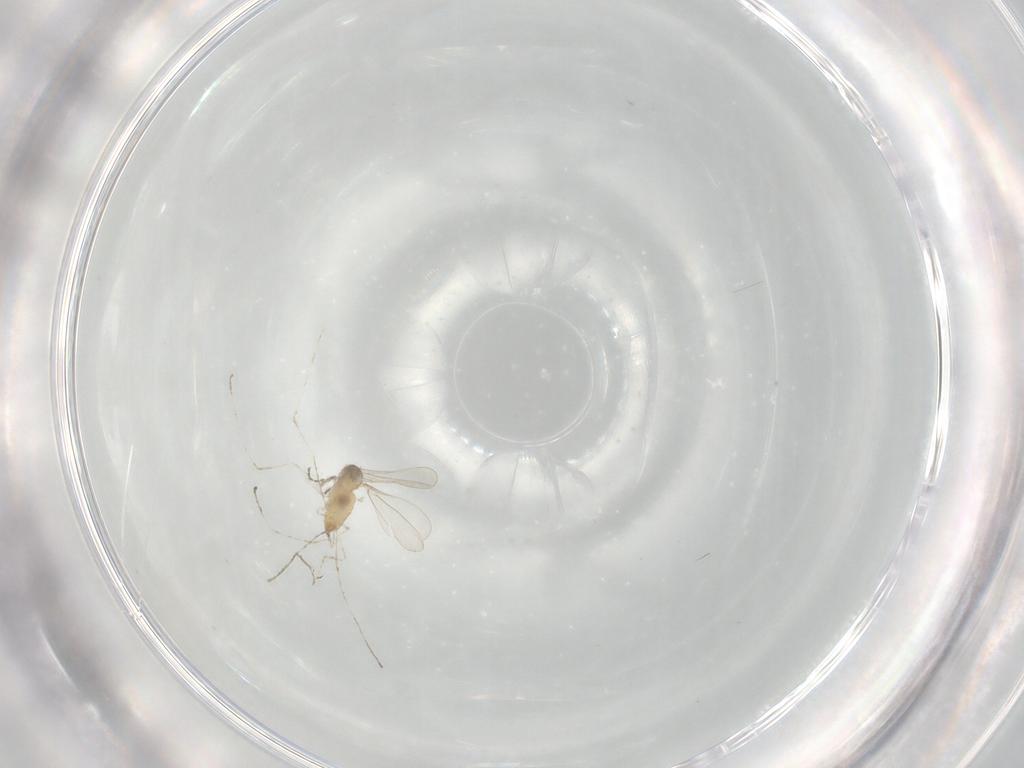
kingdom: Animalia
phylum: Arthropoda
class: Insecta
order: Diptera
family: Cecidomyiidae
